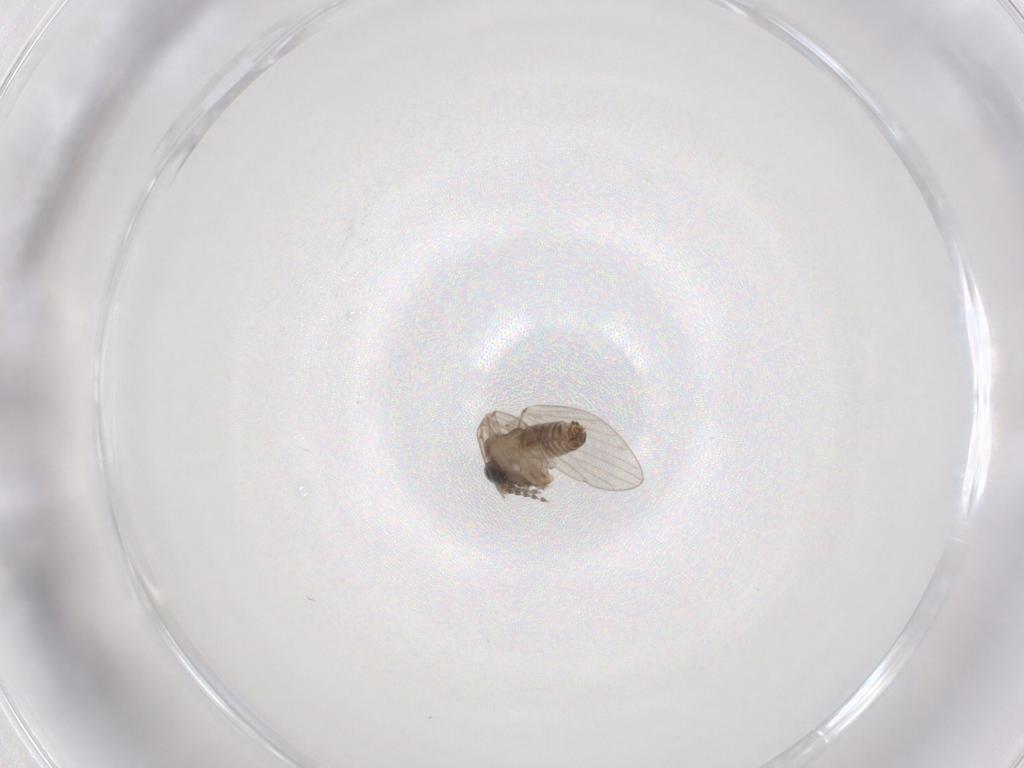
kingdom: Animalia
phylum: Arthropoda
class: Insecta
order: Diptera
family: Psychodidae
